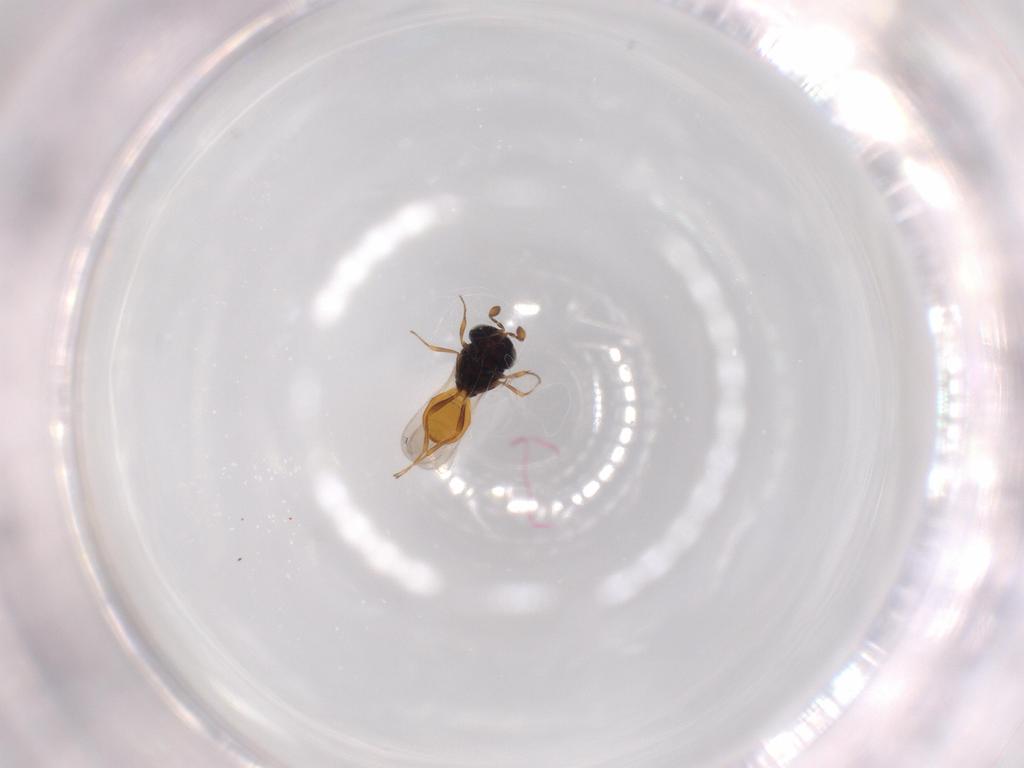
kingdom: Animalia
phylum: Arthropoda
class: Insecta
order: Hymenoptera
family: Scelionidae
